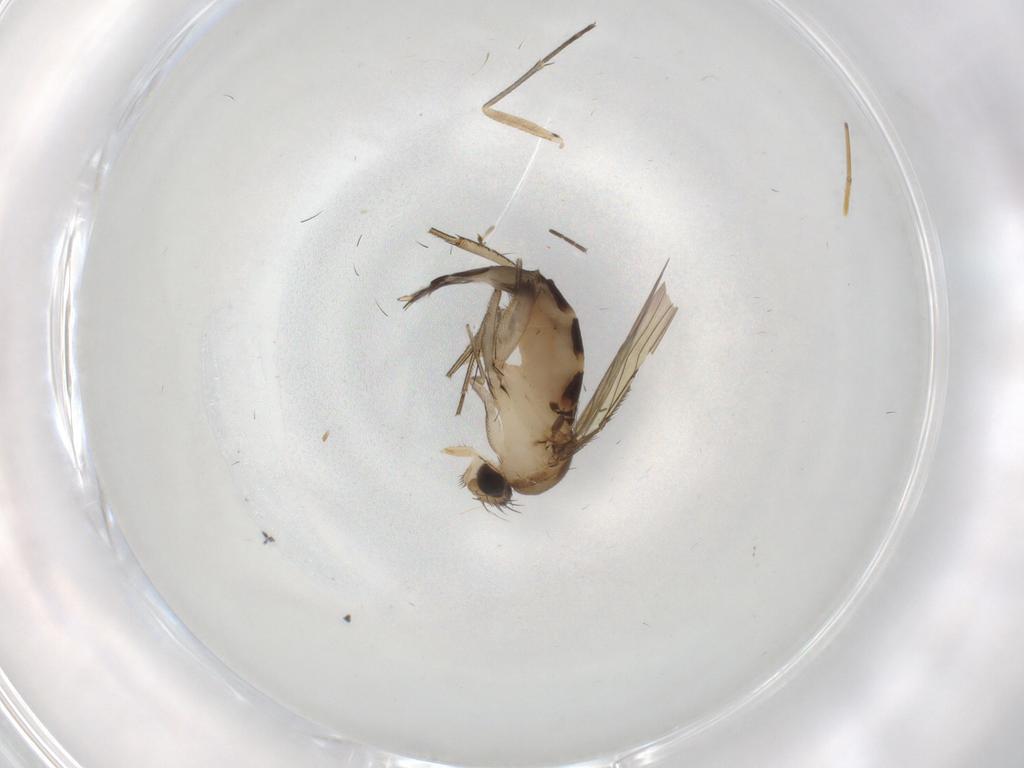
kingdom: Animalia
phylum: Arthropoda
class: Insecta
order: Diptera
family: Phoridae
